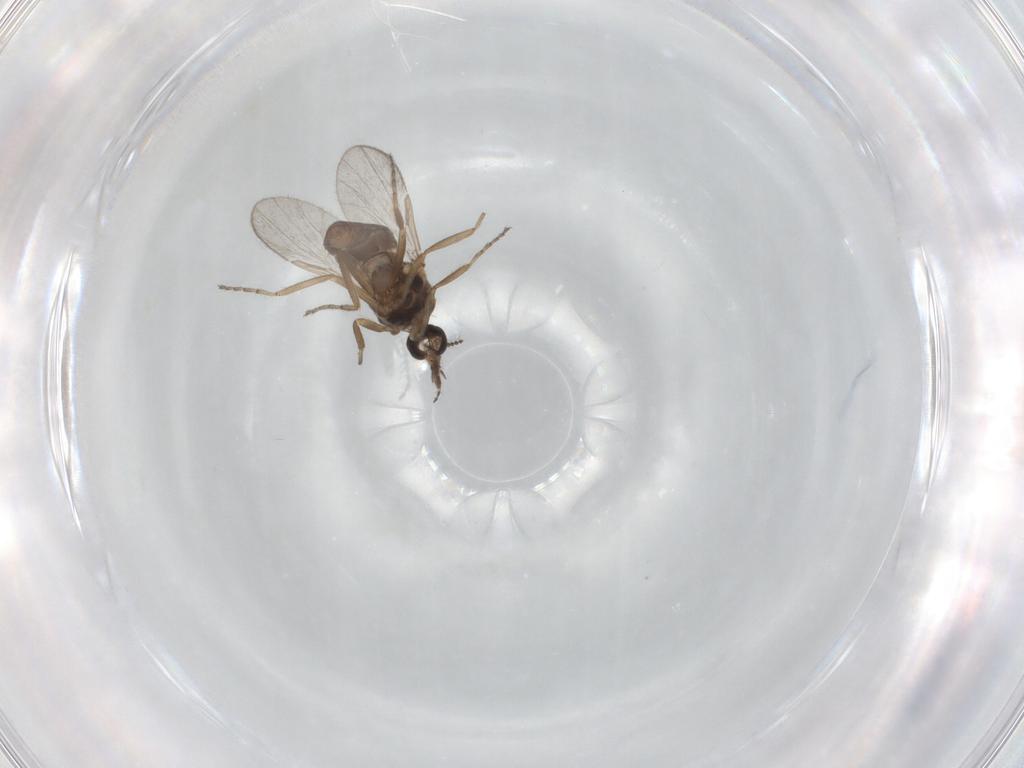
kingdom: Animalia
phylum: Arthropoda
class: Insecta
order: Diptera
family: Ceratopogonidae
